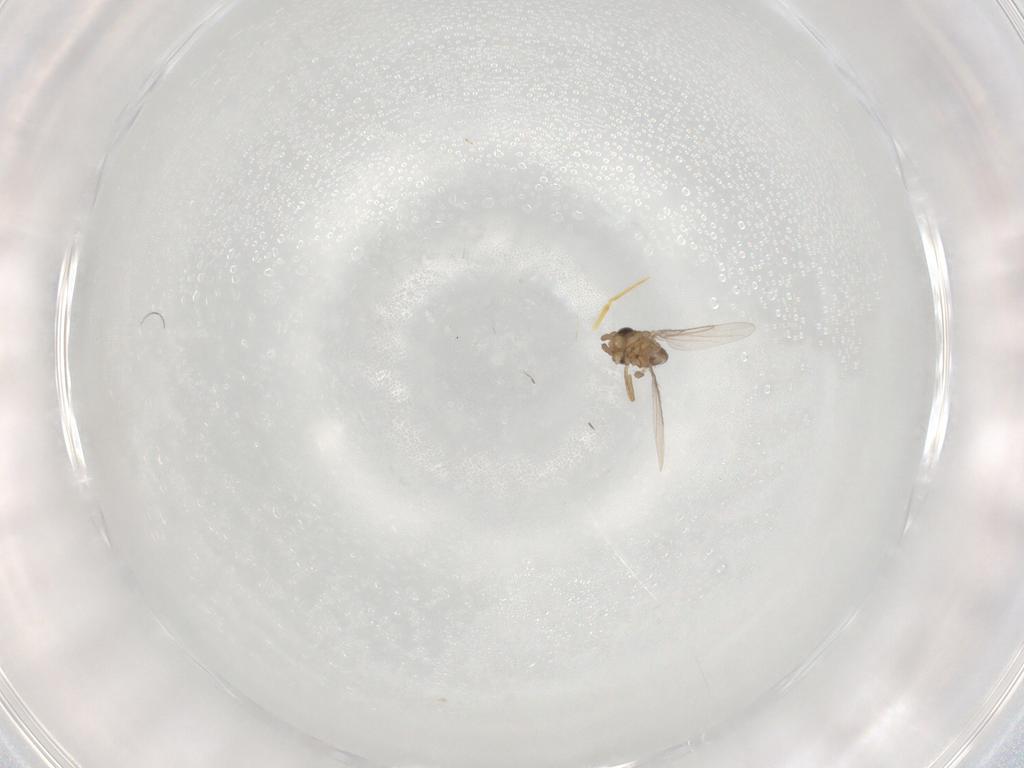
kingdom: Animalia
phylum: Arthropoda
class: Insecta
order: Diptera
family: Phoridae
